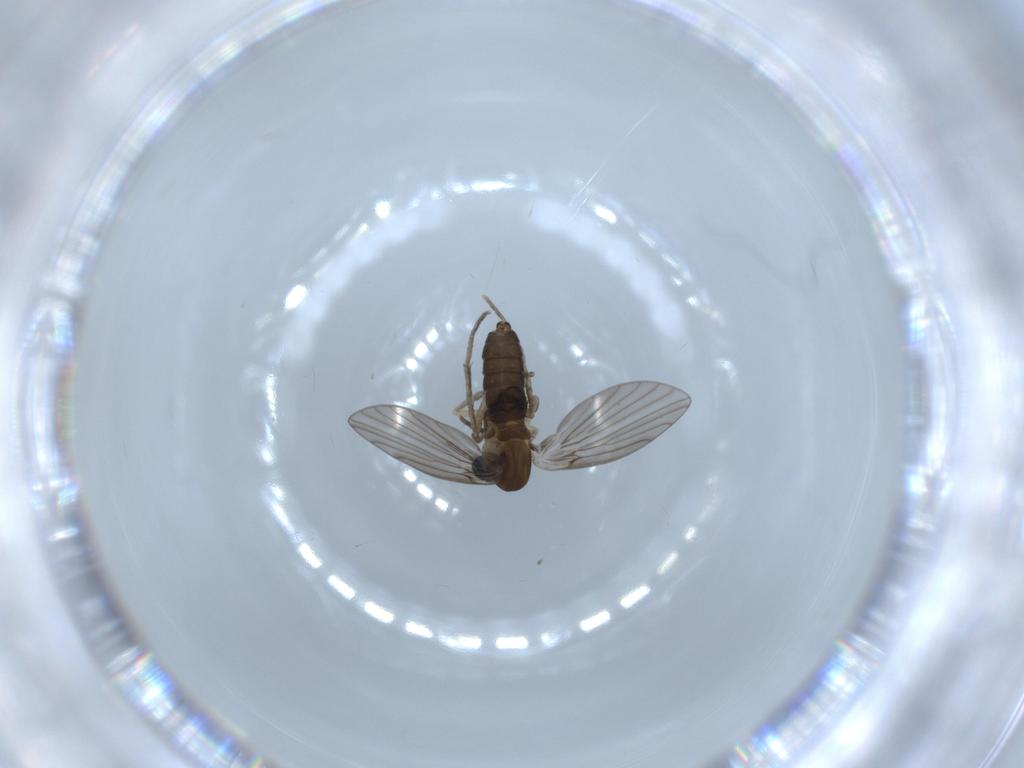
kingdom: Animalia
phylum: Arthropoda
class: Insecta
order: Diptera
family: Psychodidae
